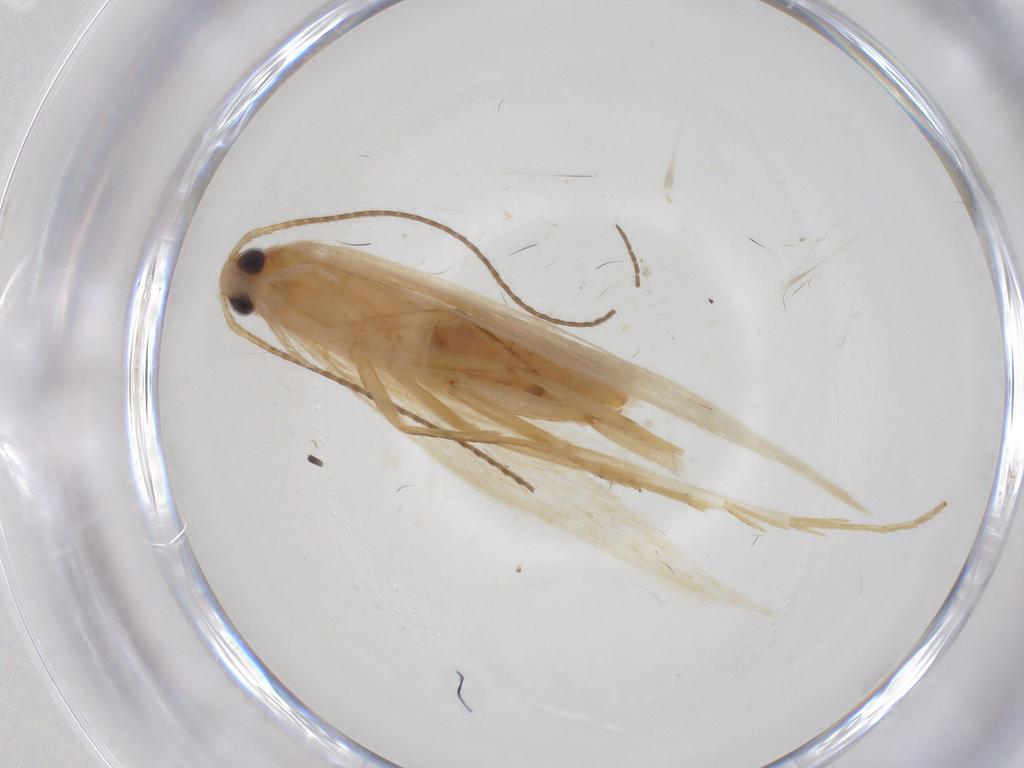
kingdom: Animalia
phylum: Arthropoda
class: Insecta
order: Lepidoptera
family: Coleophoridae
